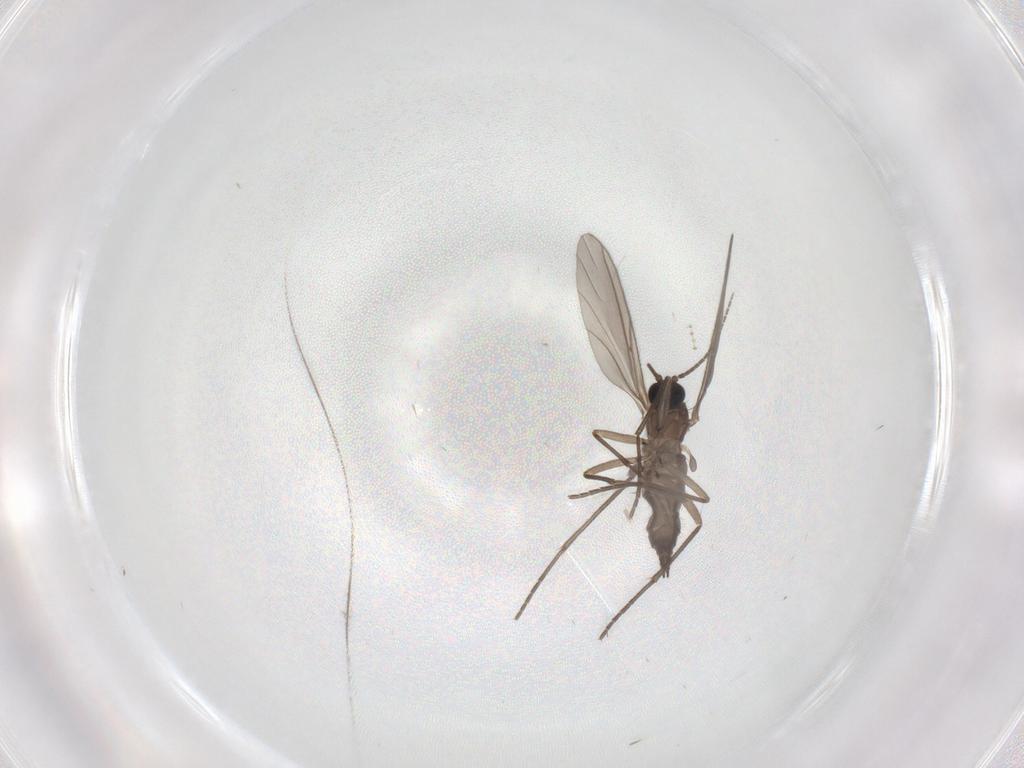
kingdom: Animalia
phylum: Arthropoda
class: Insecta
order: Diptera
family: Sciaridae
